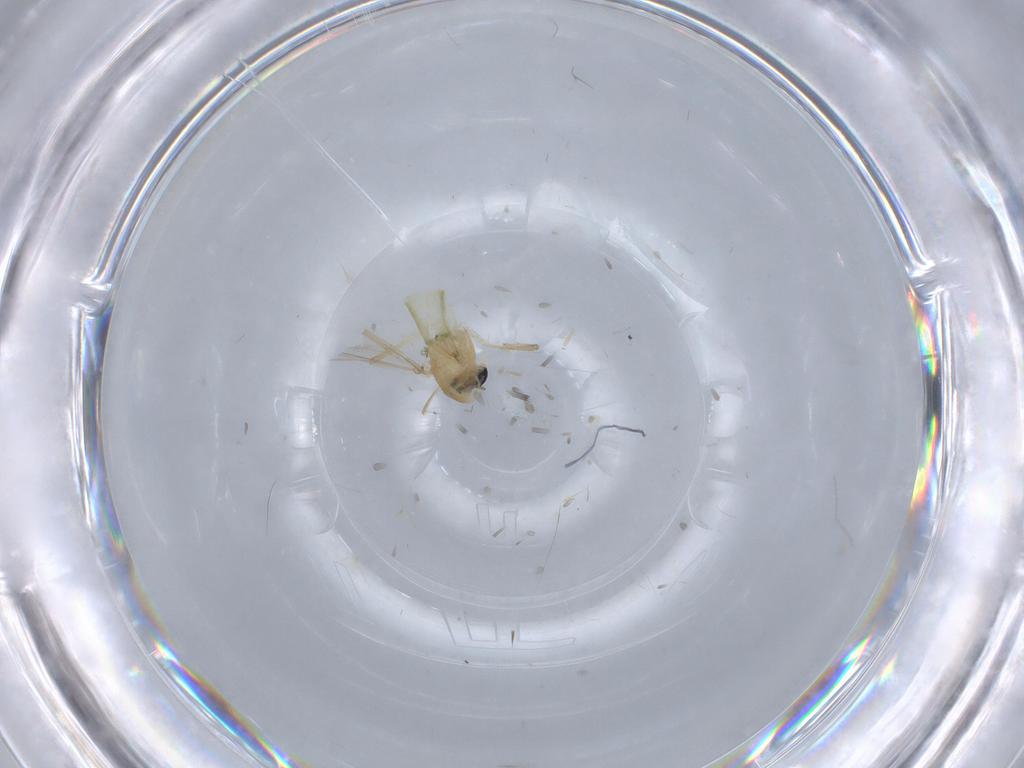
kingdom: Animalia
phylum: Arthropoda
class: Insecta
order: Diptera
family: Chironomidae
